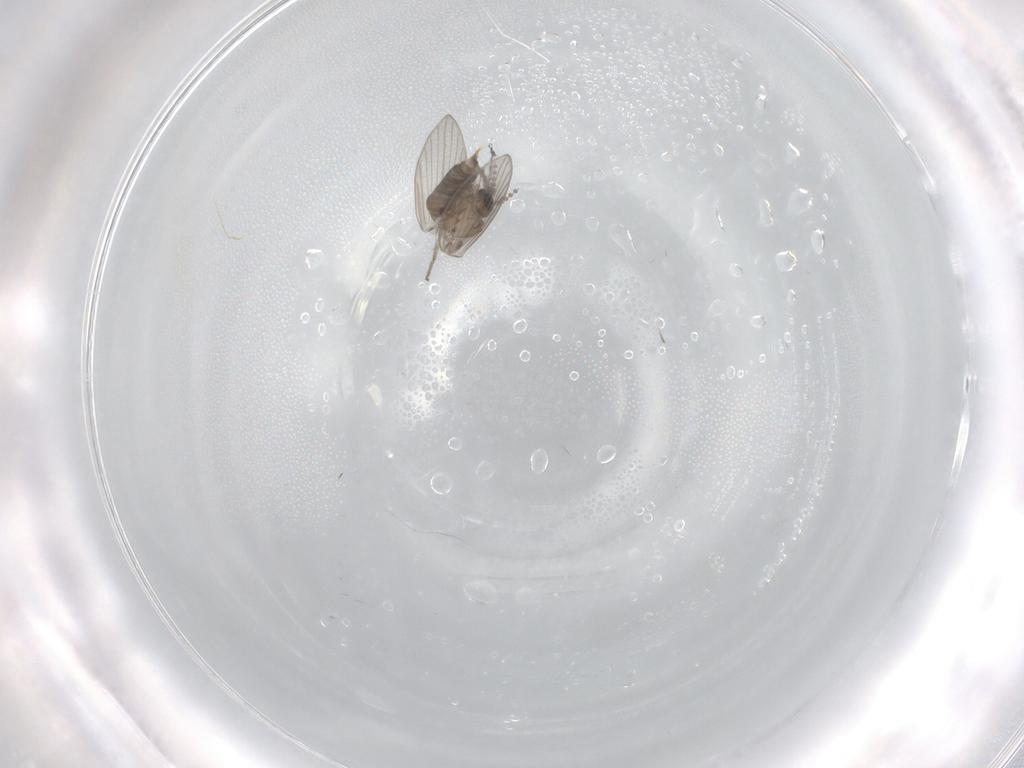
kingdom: Animalia
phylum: Arthropoda
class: Insecta
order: Diptera
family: Psychodidae
